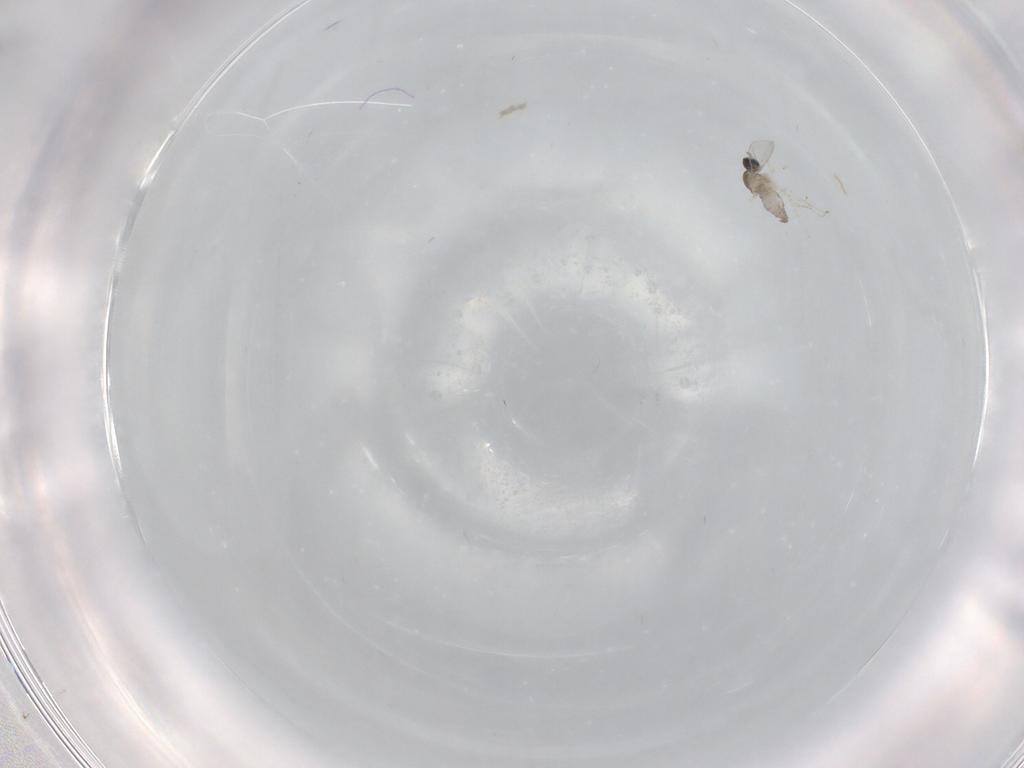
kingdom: Animalia
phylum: Arthropoda
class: Insecta
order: Diptera
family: Cecidomyiidae
